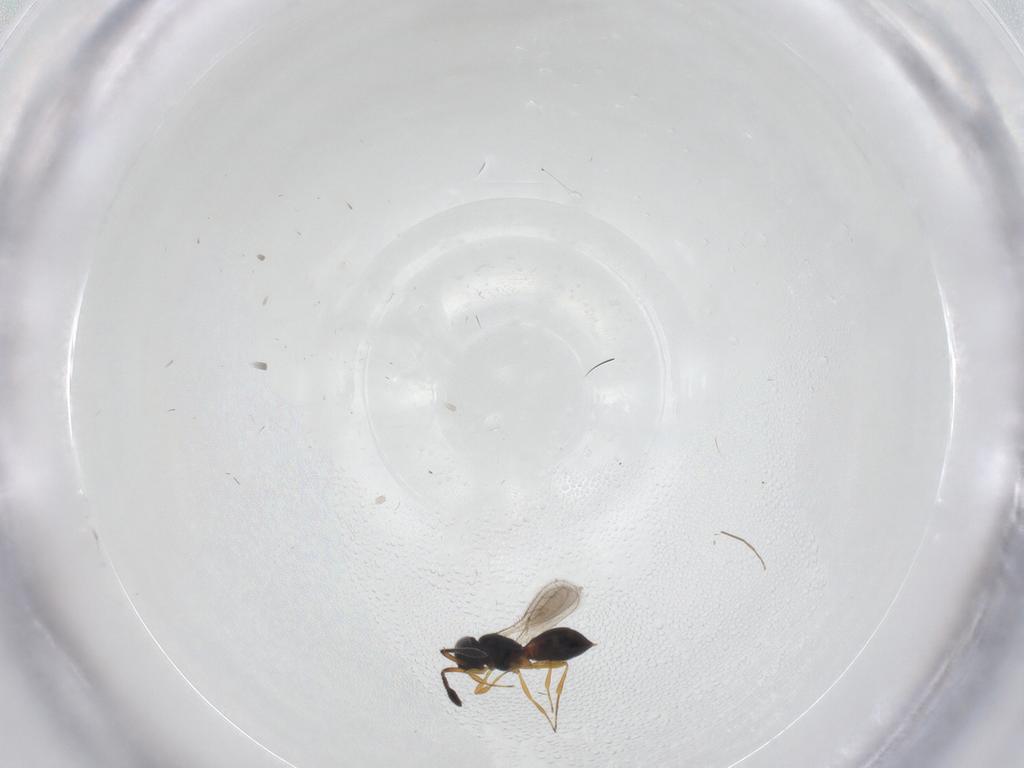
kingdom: Animalia
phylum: Arthropoda
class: Insecta
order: Hymenoptera
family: Scelionidae
